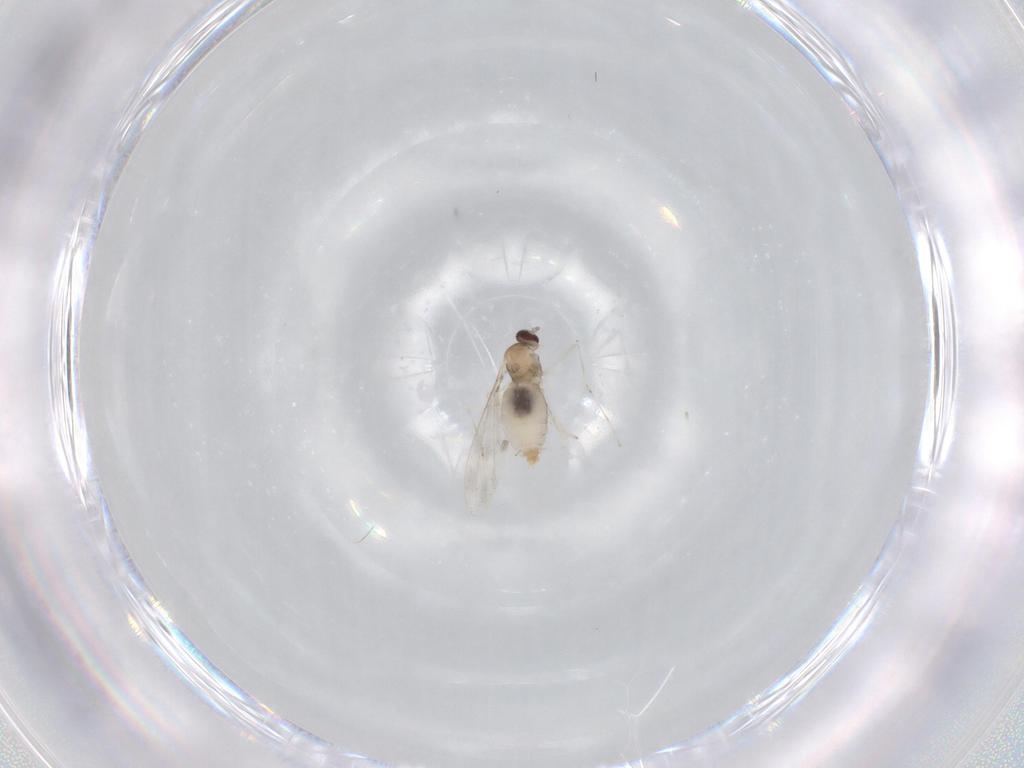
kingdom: Animalia
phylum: Arthropoda
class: Insecta
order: Diptera
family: Cecidomyiidae
